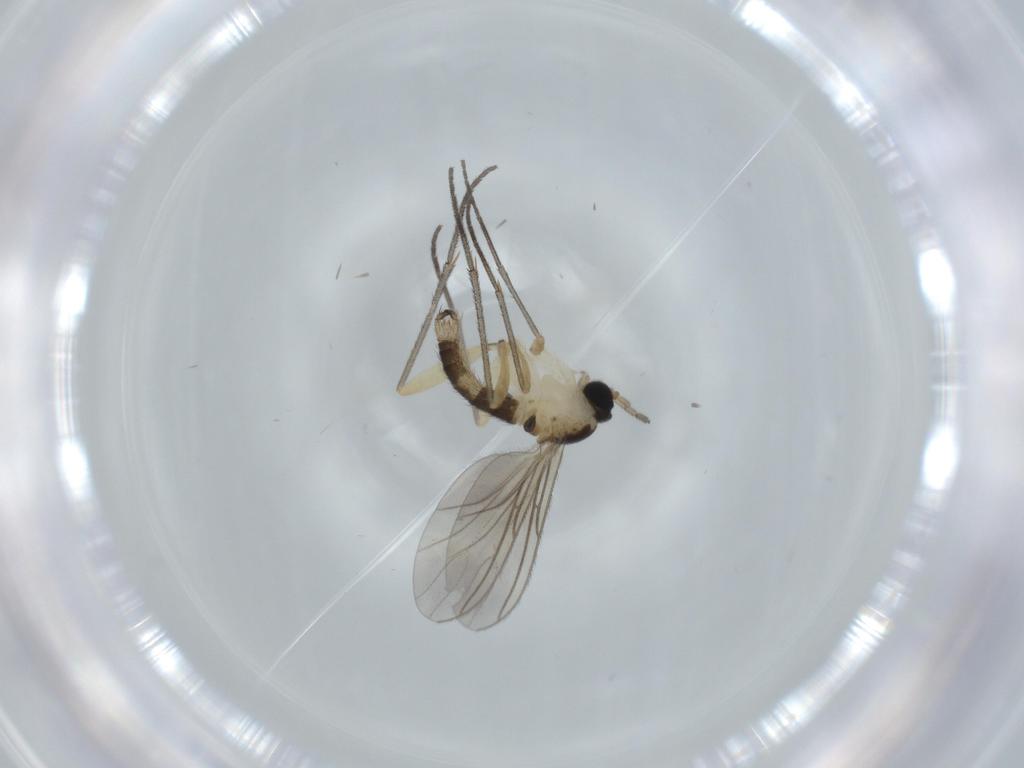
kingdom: Animalia
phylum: Arthropoda
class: Insecta
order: Diptera
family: Sciaridae
